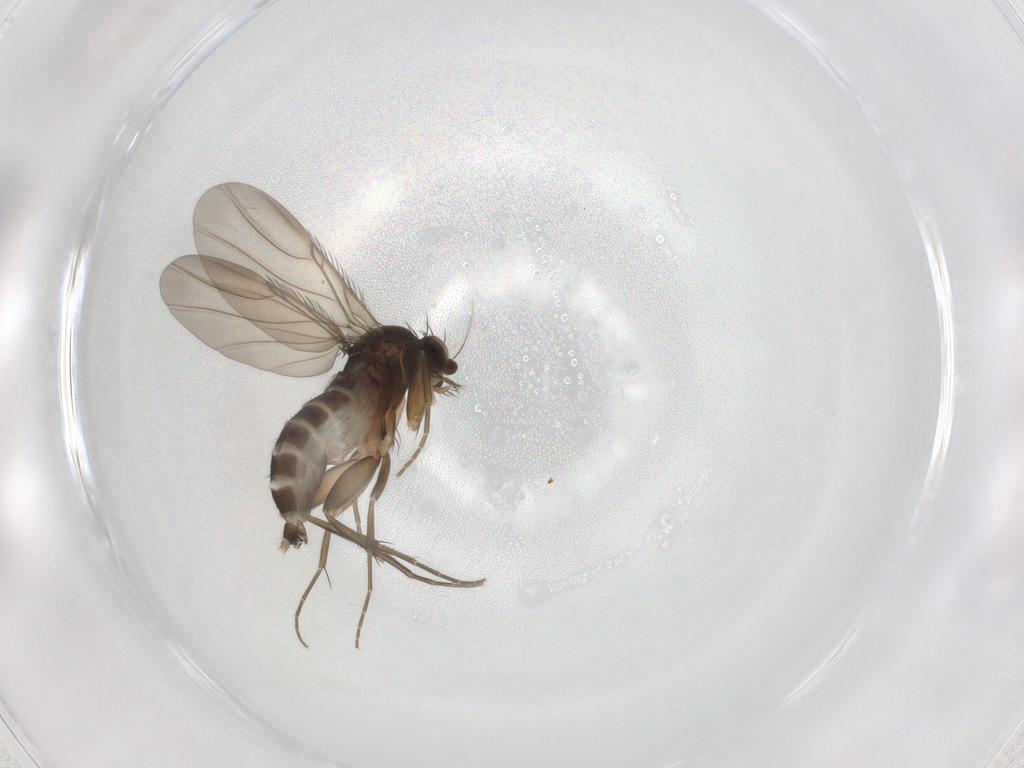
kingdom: Animalia
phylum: Arthropoda
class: Insecta
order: Diptera
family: Phoridae
